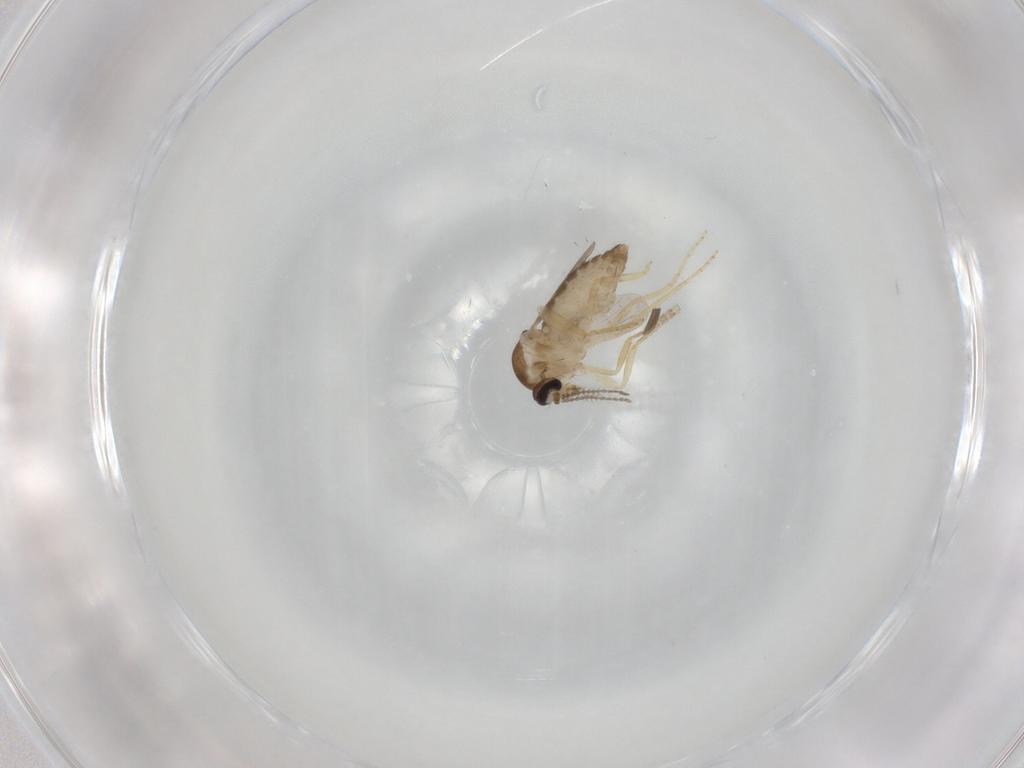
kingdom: Animalia
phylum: Arthropoda
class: Insecta
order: Diptera
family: Ceratopogonidae
